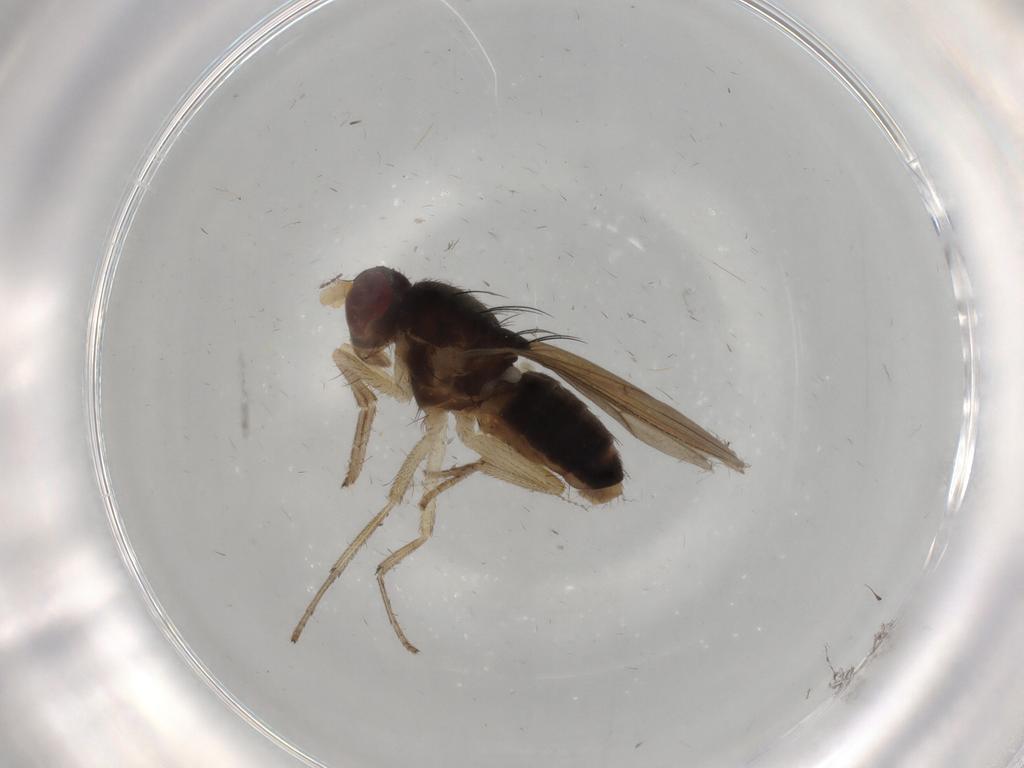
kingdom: Animalia
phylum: Arthropoda
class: Insecta
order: Diptera
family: Cecidomyiidae
